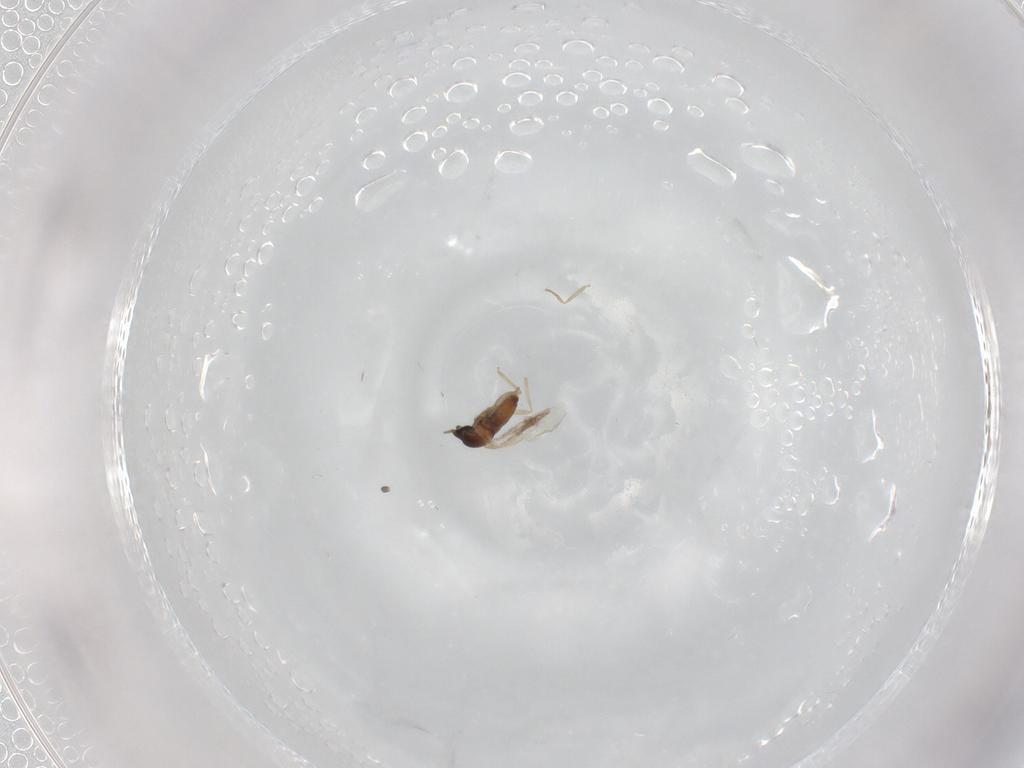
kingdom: Animalia
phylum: Arthropoda
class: Insecta
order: Diptera
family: Cecidomyiidae
